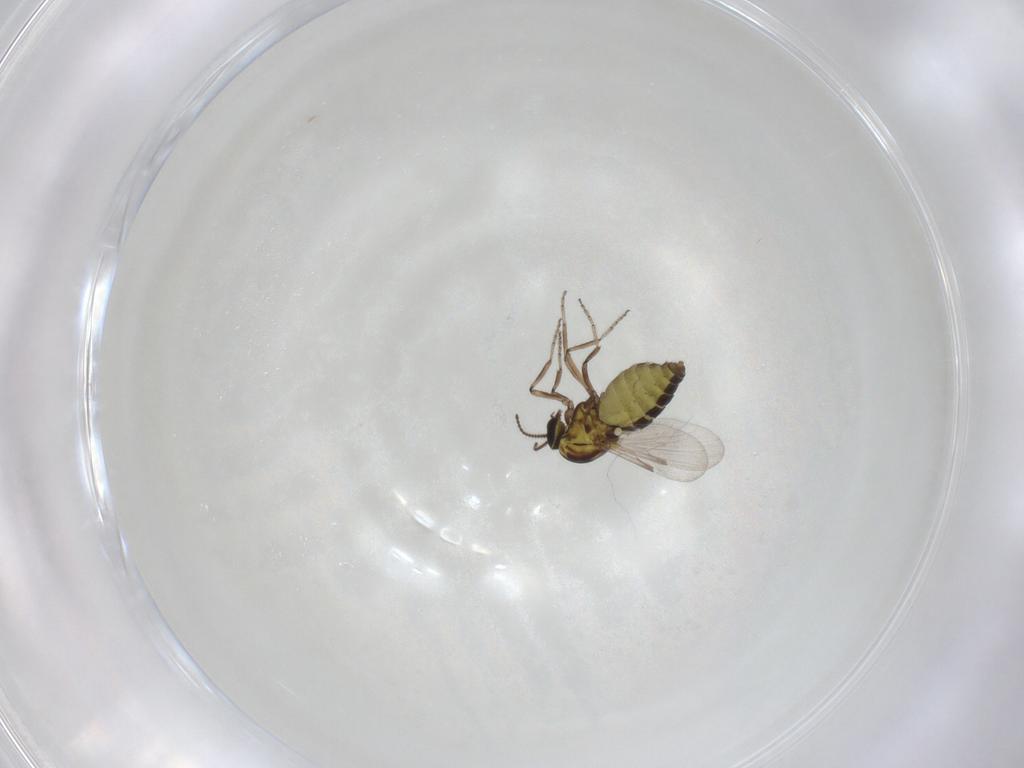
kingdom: Animalia
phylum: Arthropoda
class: Insecta
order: Diptera
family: Ceratopogonidae
